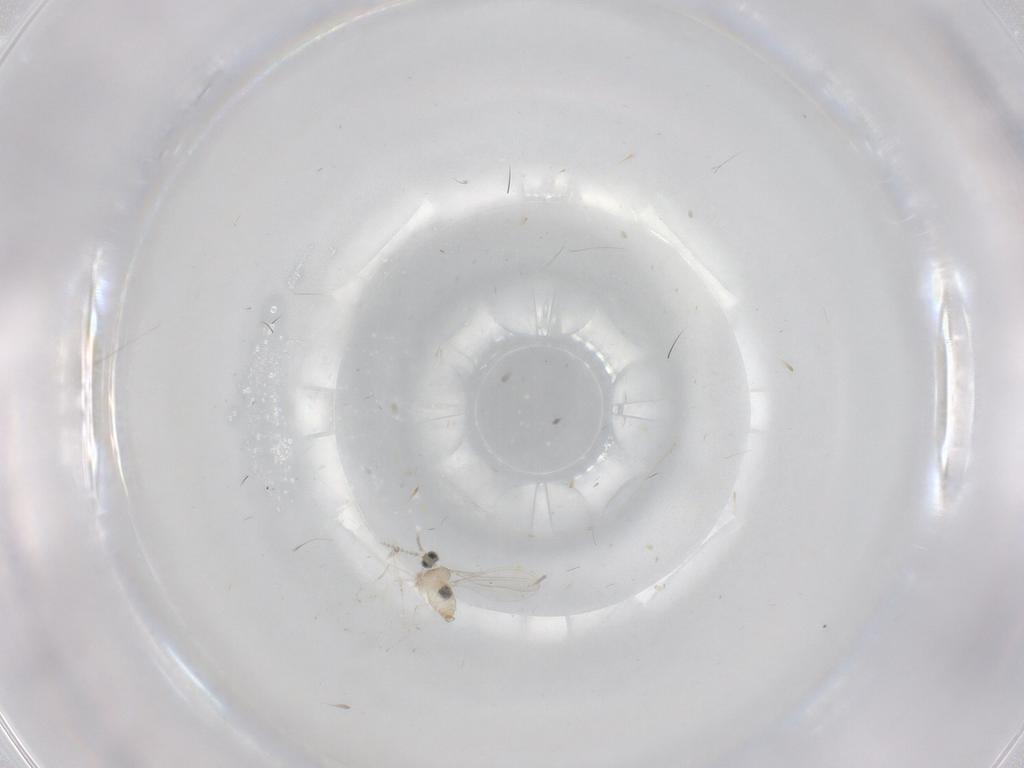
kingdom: Animalia
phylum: Arthropoda
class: Insecta
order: Diptera
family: Cecidomyiidae
